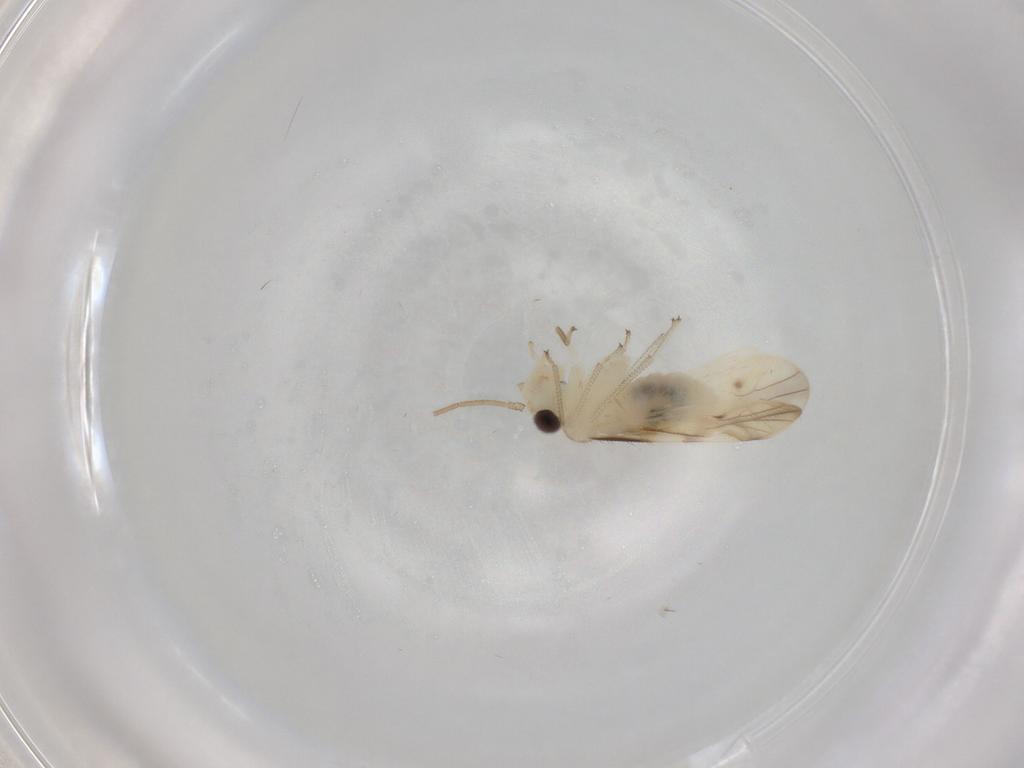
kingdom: Animalia
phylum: Arthropoda
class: Insecta
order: Psocodea
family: Caeciliusidae
